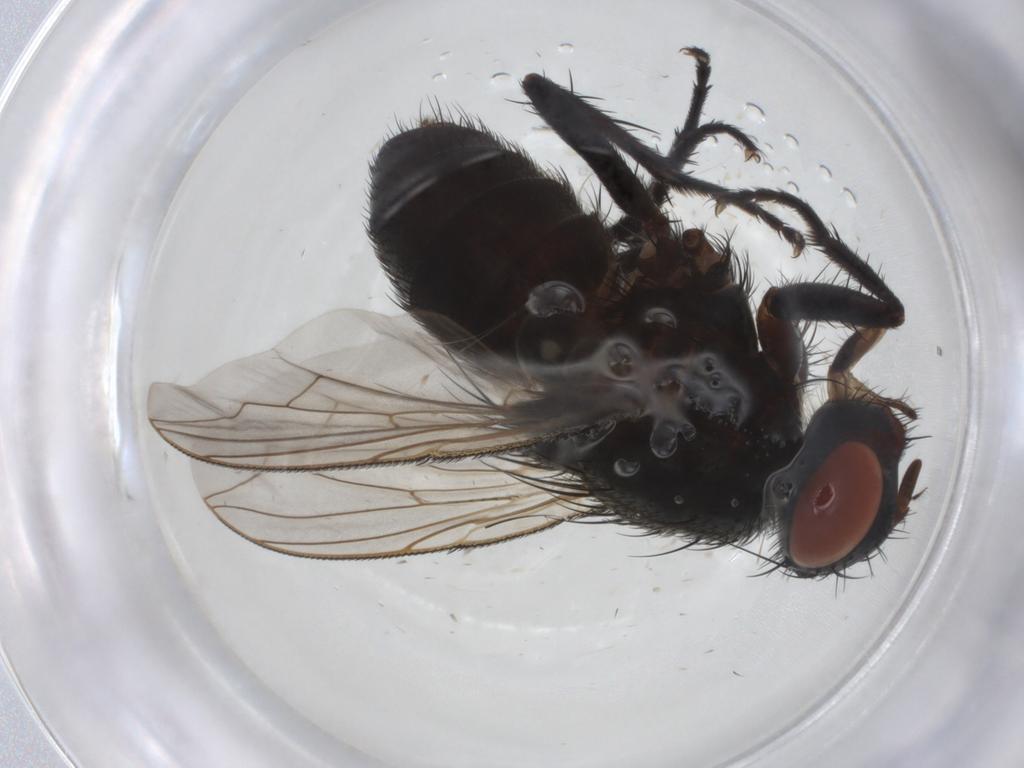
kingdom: Animalia
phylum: Arthropoda
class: Insecta
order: Diptera
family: Sarcophagidae
